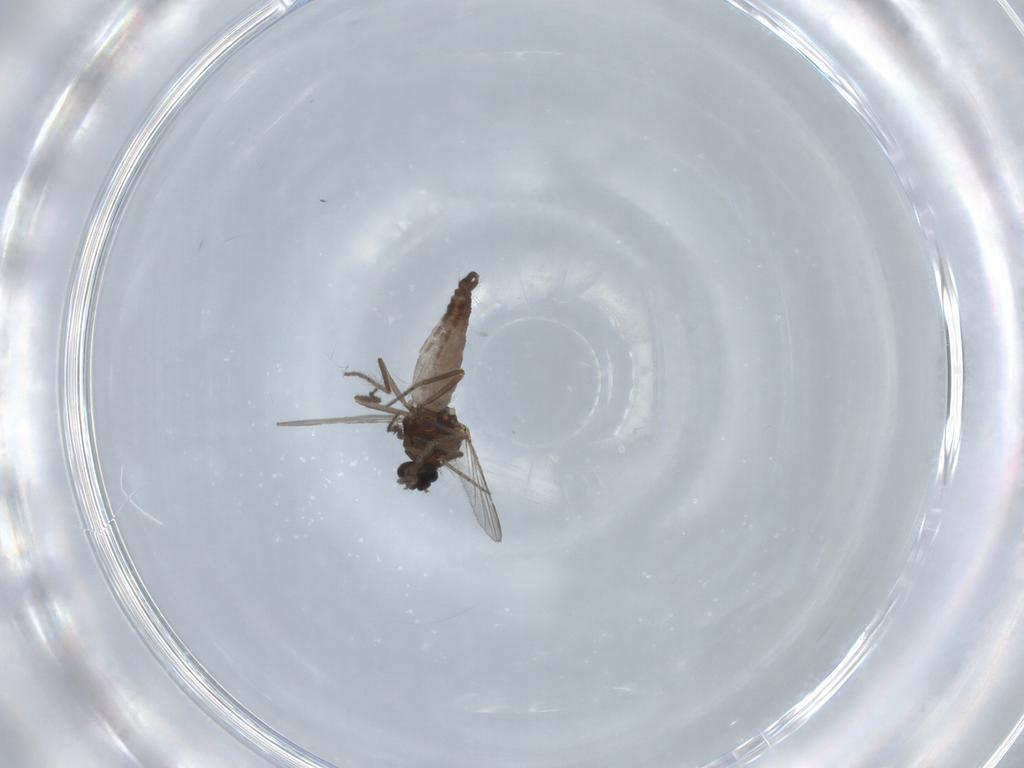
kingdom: Animalia
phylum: Arthropoda
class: Insecta
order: Diptera
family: Ceratopogonidae
